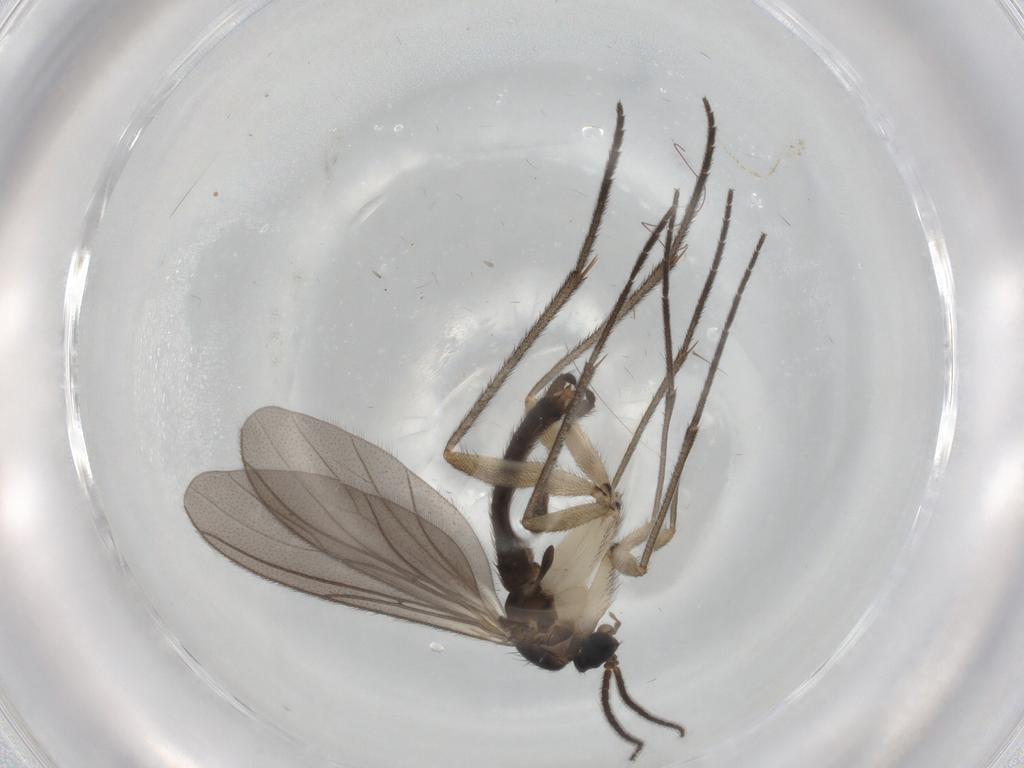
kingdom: Animalia
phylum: Arthropoda
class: Insecta
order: Diptera
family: Sciaridae
